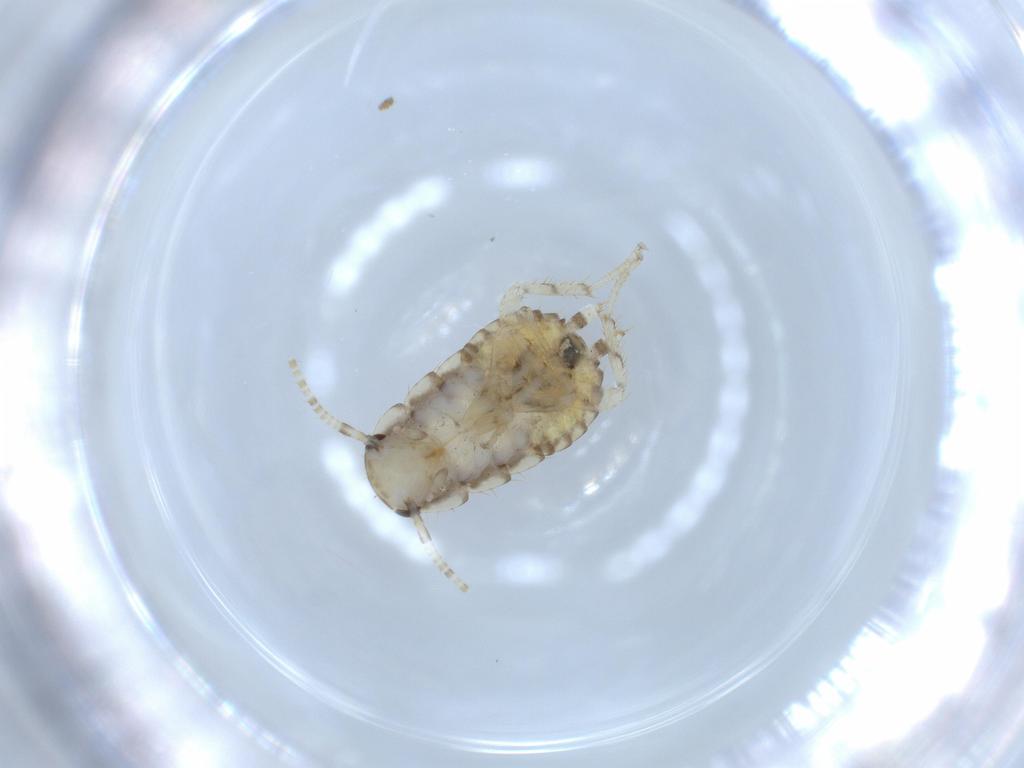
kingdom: Animalia
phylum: Arthropoda
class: Insecta
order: Blattodea
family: Ectobiidae
